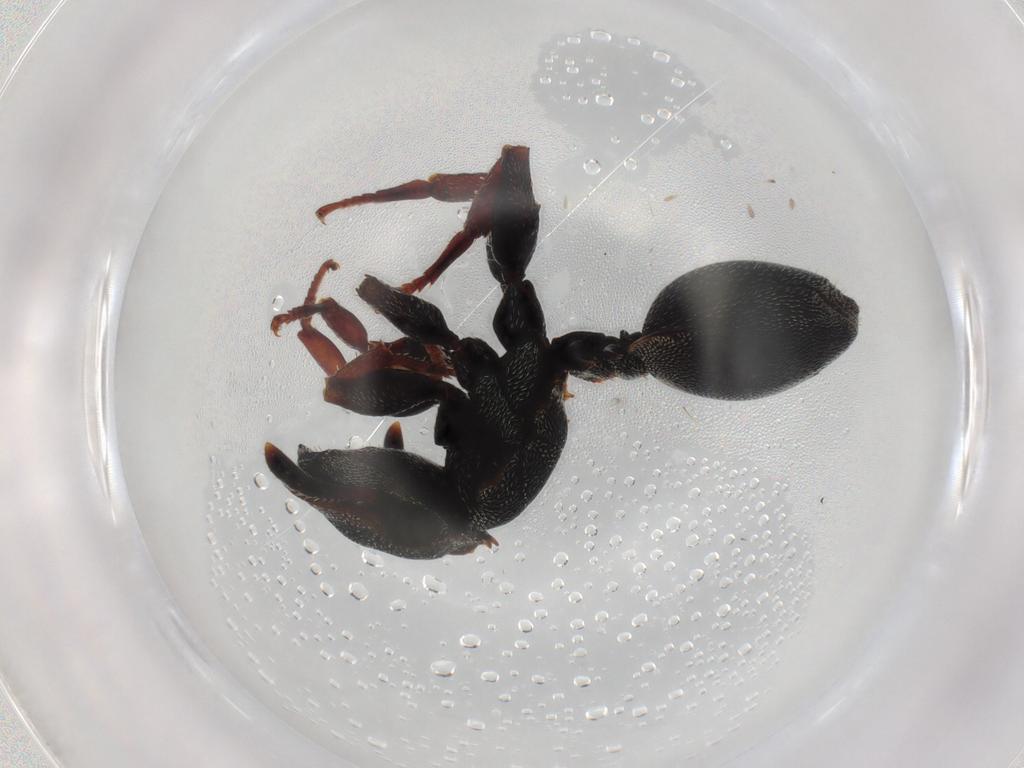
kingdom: Animalia
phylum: Arthropoda
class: Insecta
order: Hymenoptera
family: Formicidae
